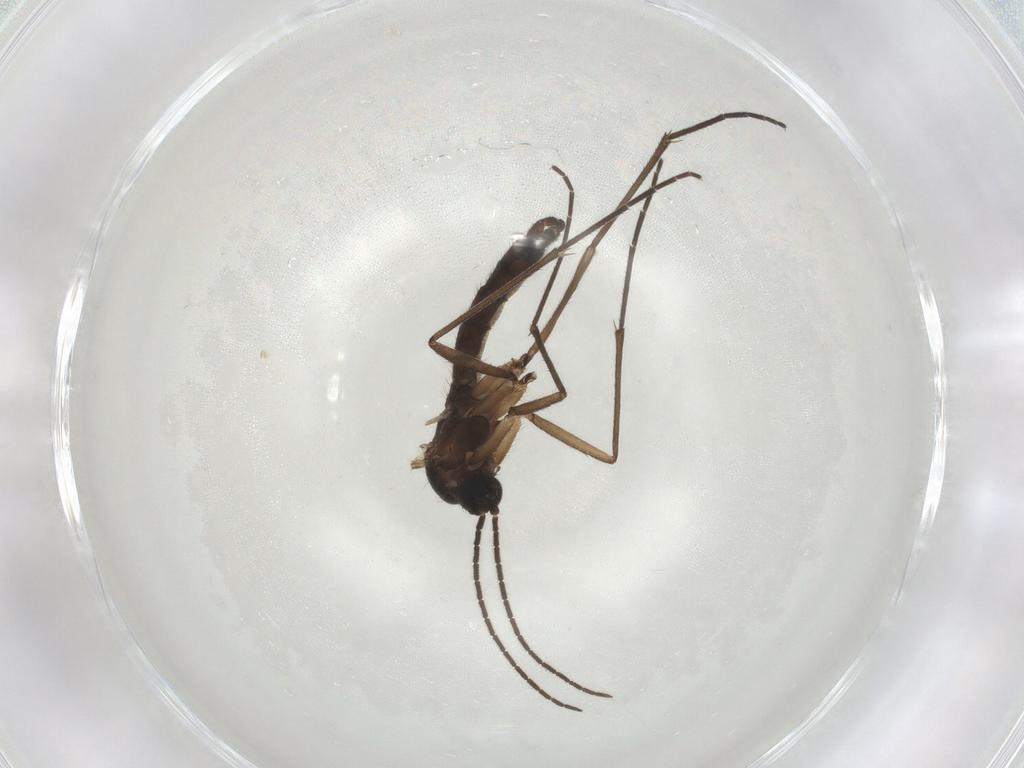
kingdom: Animalia
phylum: Arthropoda
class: Insecta
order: Diptera
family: Sciaridae
